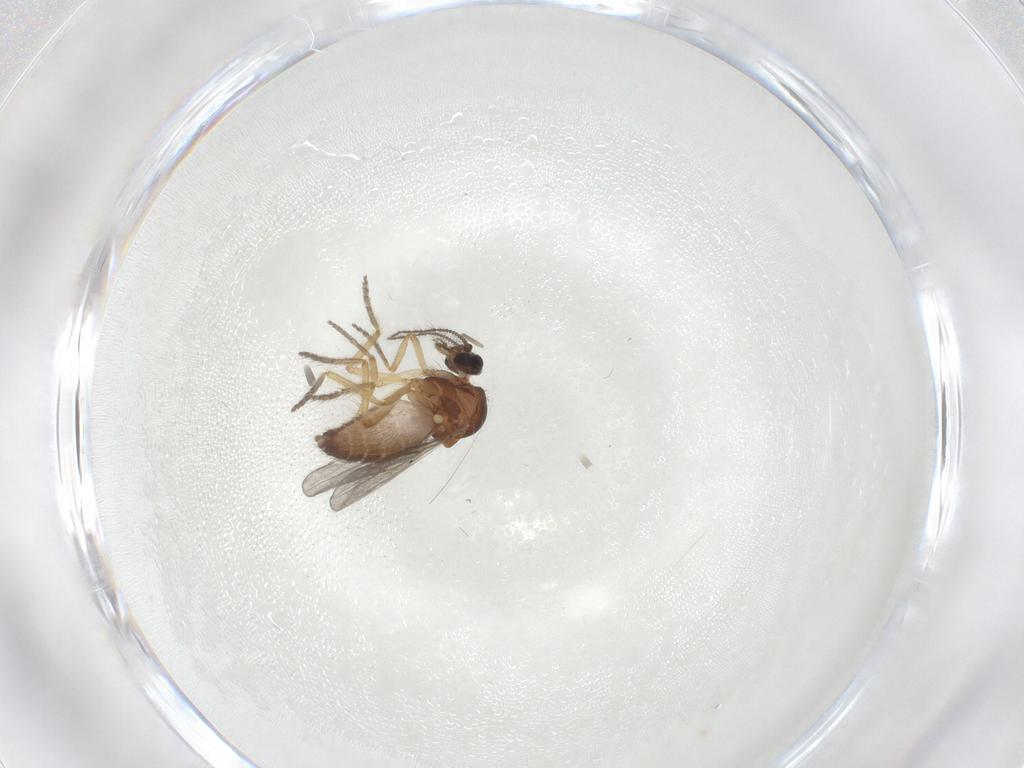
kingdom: Animalia
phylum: Arthropoda
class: Insecta
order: Diptera
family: Ceratopogonidae
